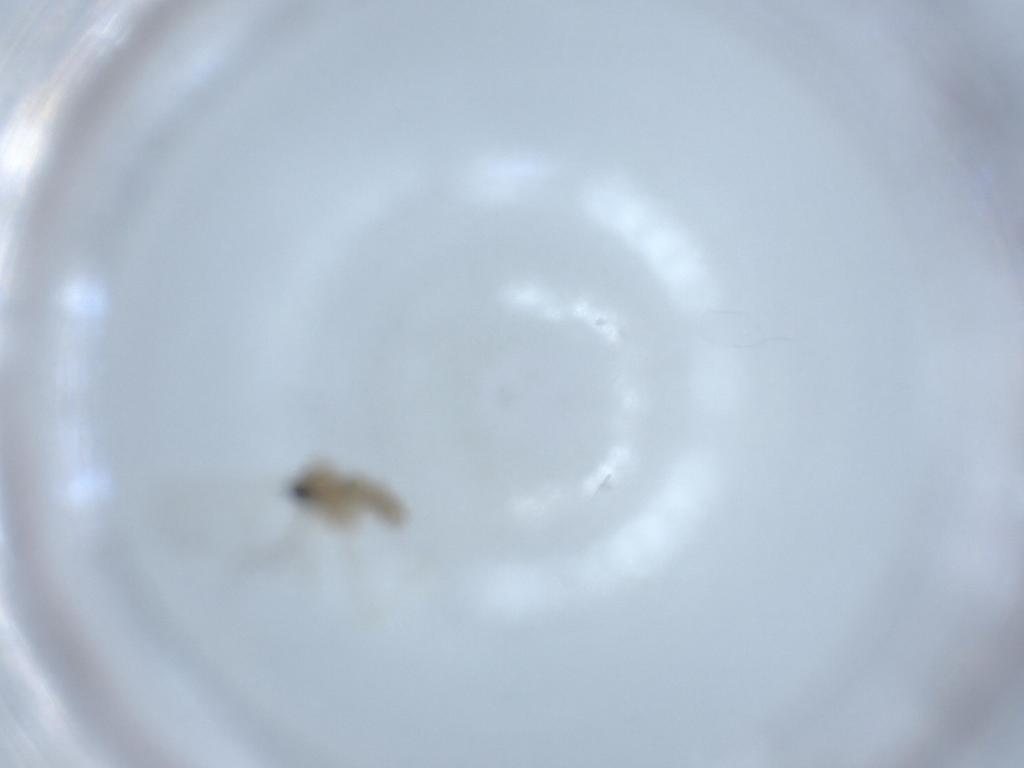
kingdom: Animalia
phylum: Arthropoda
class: Insecta
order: Diptera
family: Cecidomyiidae
